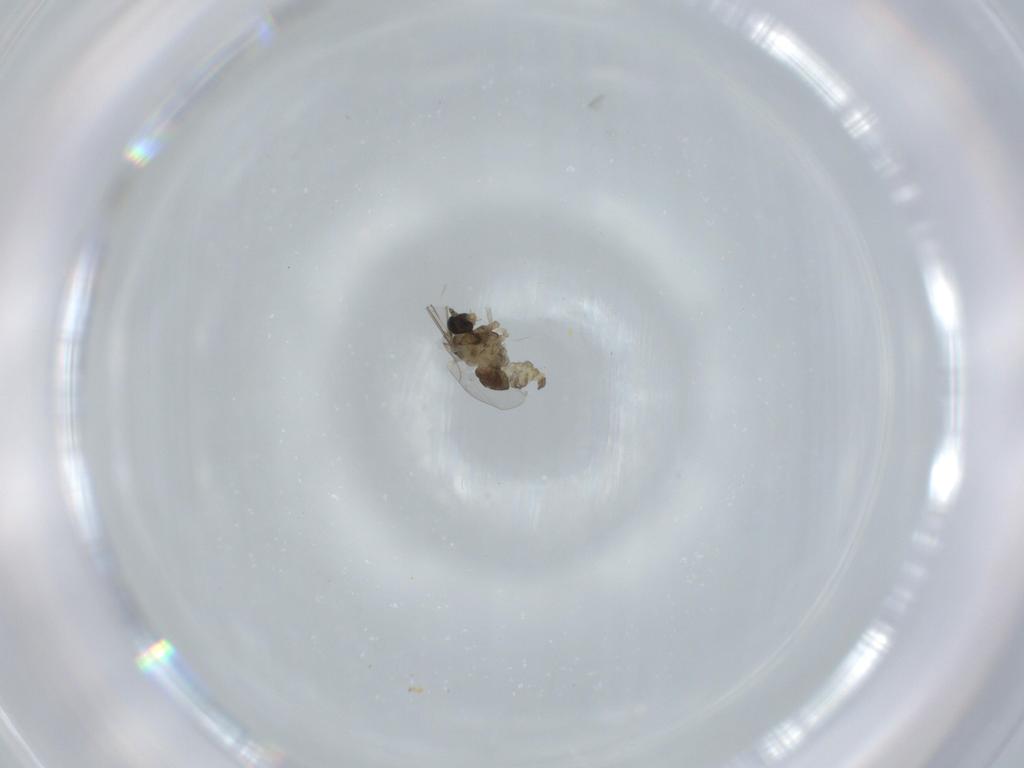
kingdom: Animalia
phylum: Arthropoda
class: Insecta
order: Diptera
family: Cecidomyiidae
